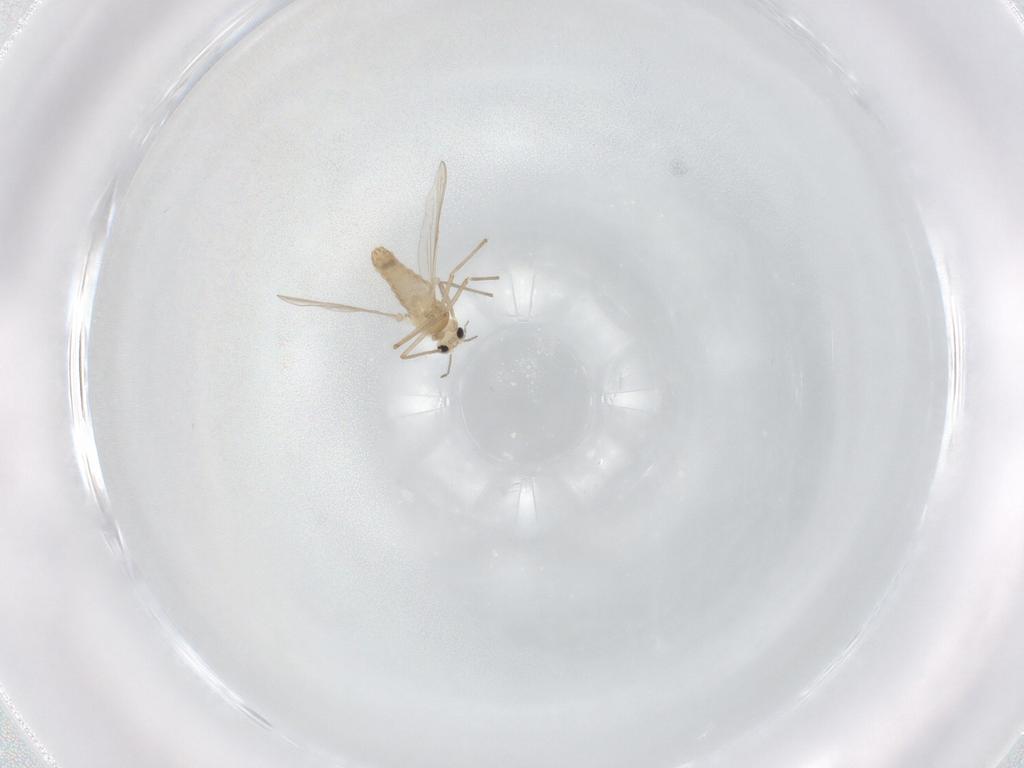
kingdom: Animalia
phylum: Arthropoda
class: Insecta
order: Diptera
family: Chironomidae
